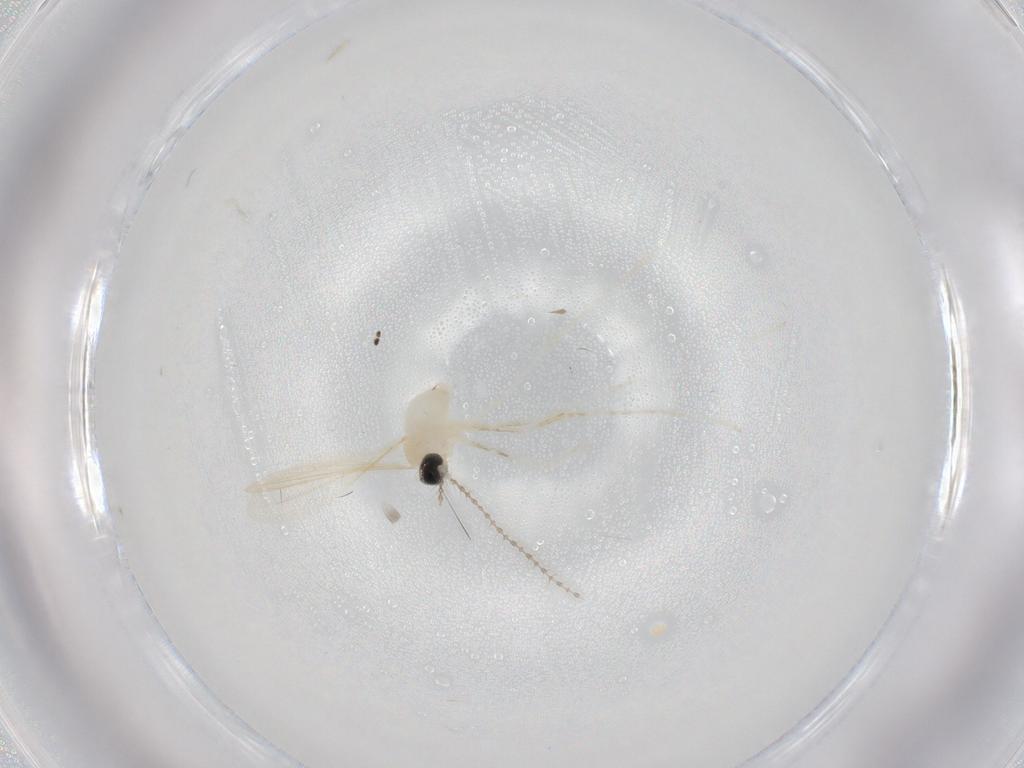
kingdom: Animalia
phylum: Arthropoda
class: Insecta
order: Diptera
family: Cecidomyiidae
